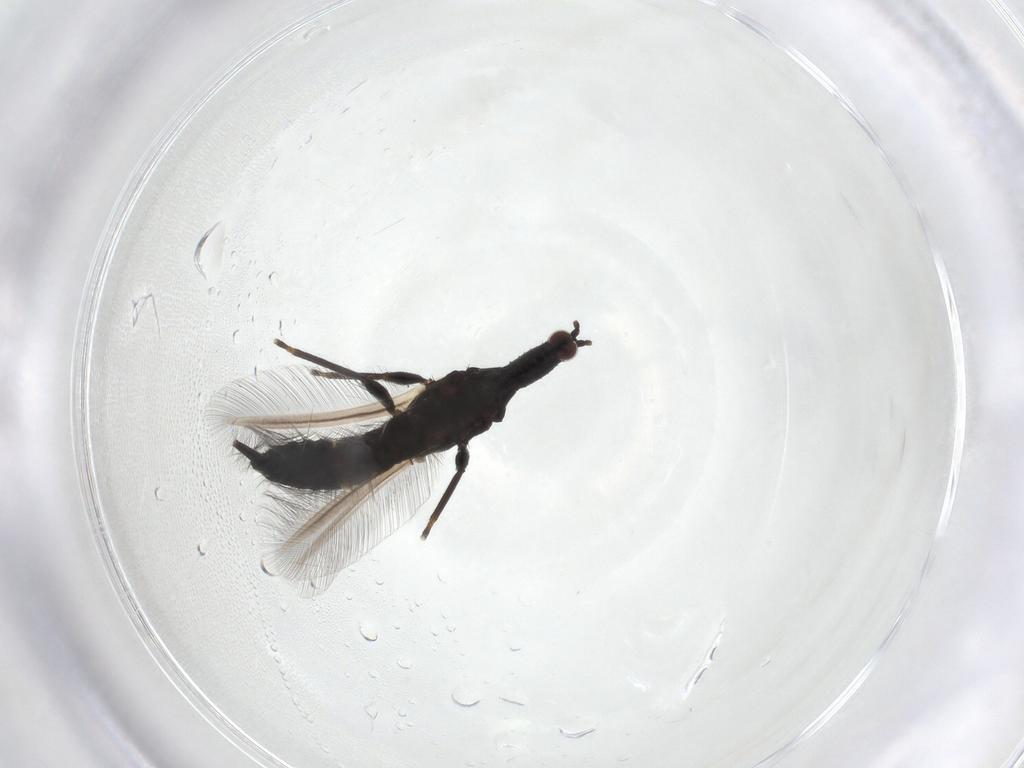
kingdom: Animalia
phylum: Arthropoda
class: Insecta
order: Thysanoptera
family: Phlaeothripidae
